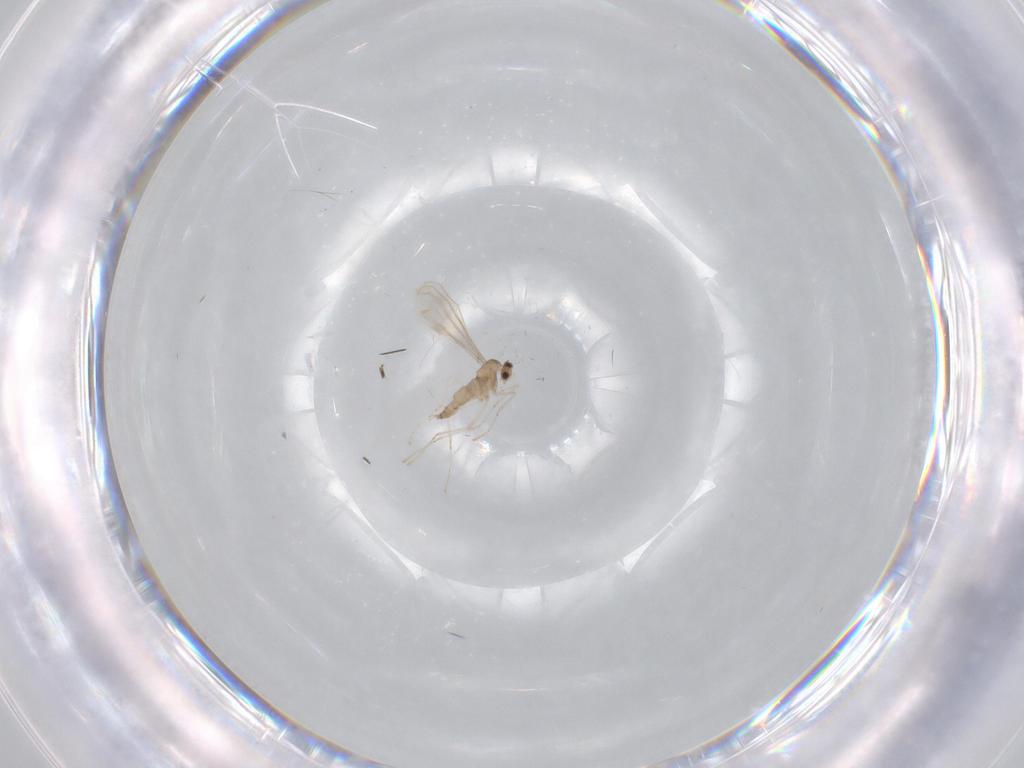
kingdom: Animalia
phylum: Arthropoda
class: Insecta
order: Diptera
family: Cecidomyiidae
